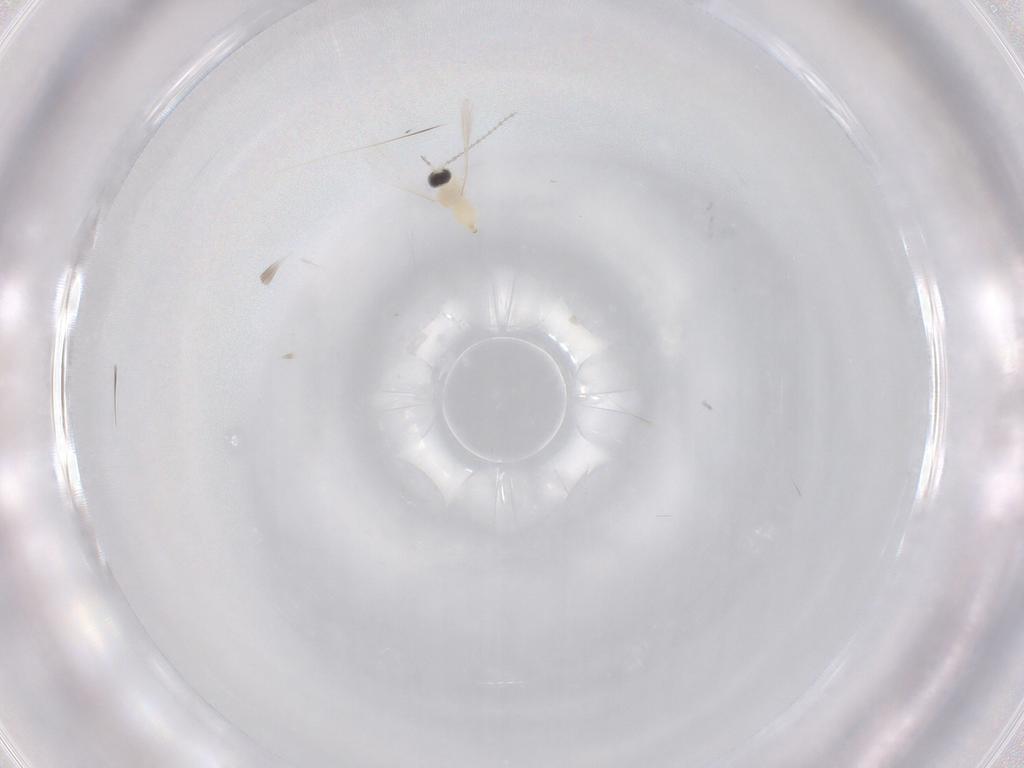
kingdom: Animalia
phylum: Arthropoda
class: Insecta
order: Diptera
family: Cecidomyiidae
